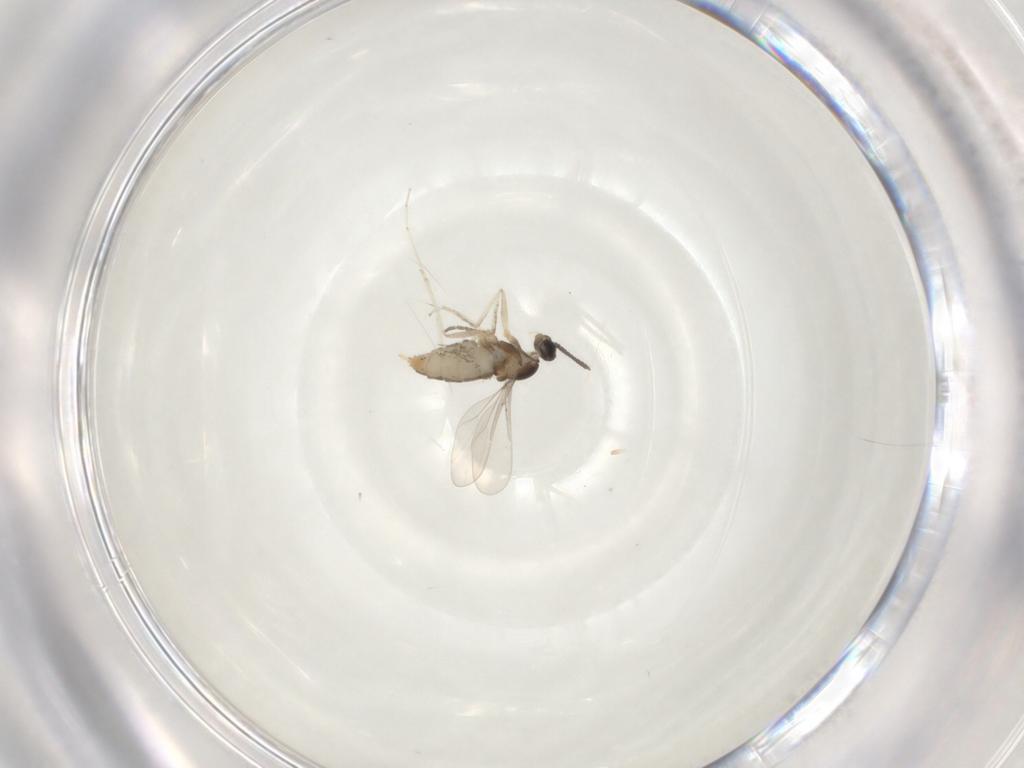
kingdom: Animalia
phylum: Arthropoda
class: Insecta
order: Diptera
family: Cecidomyiidae
